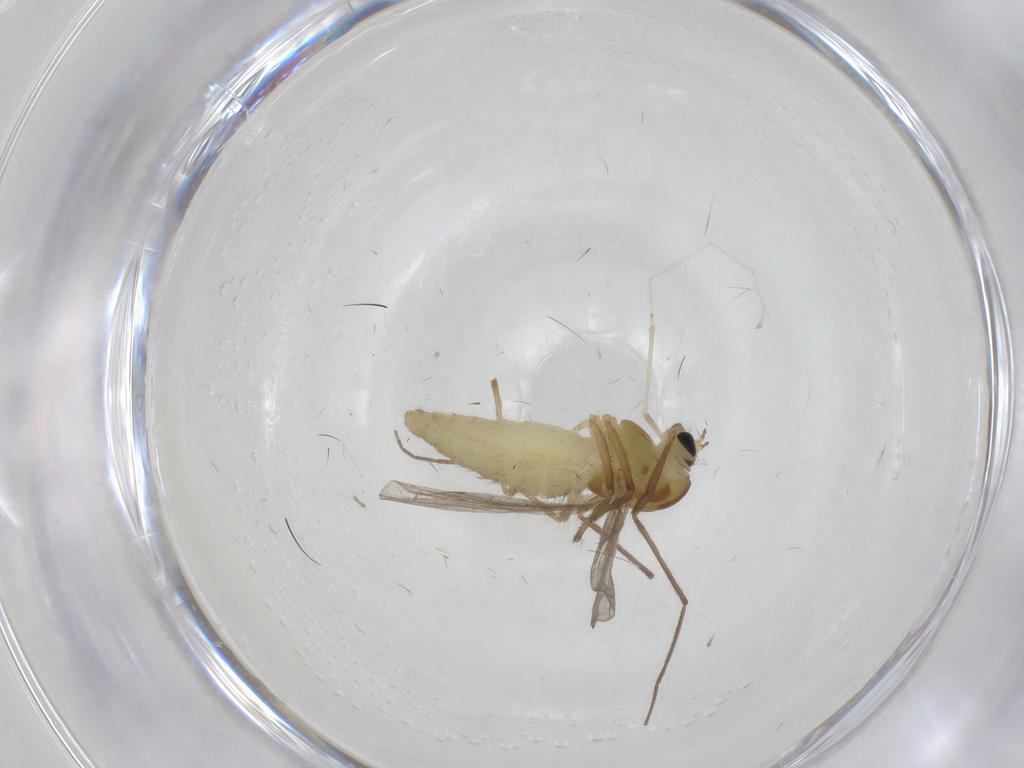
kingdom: Animalia
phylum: Arthropoda
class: Insecta
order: Diptera
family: Chironomidae
